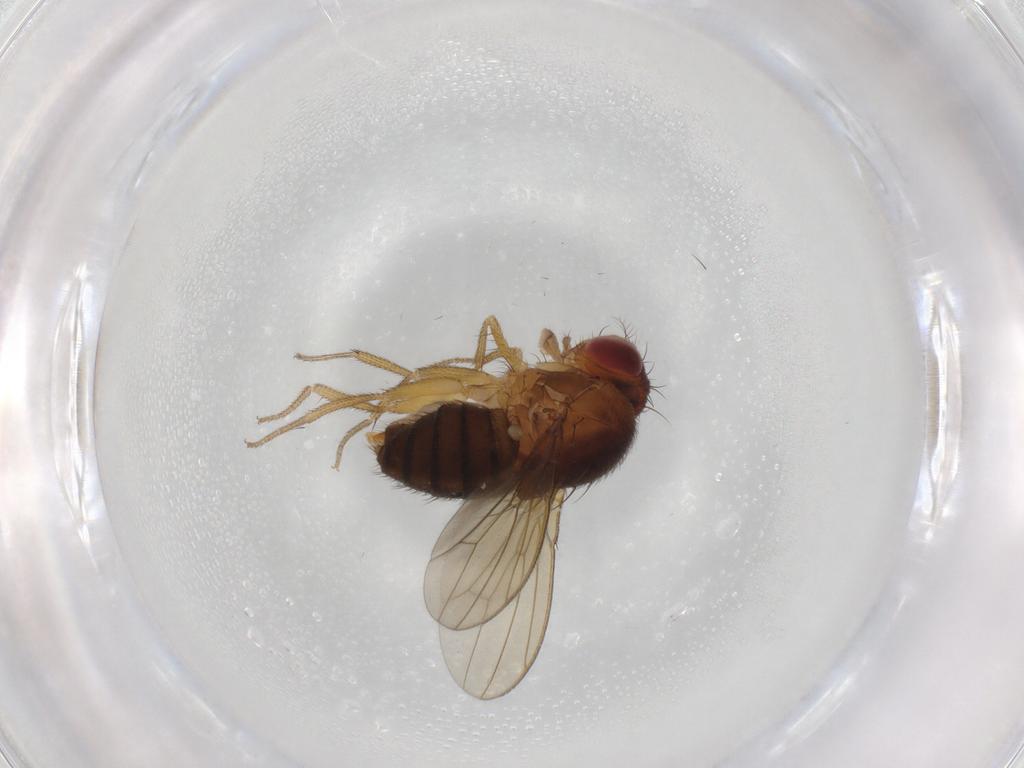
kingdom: Animalia
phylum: Arthropoda
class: Insecta
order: Diptera
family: Drosophilidae
